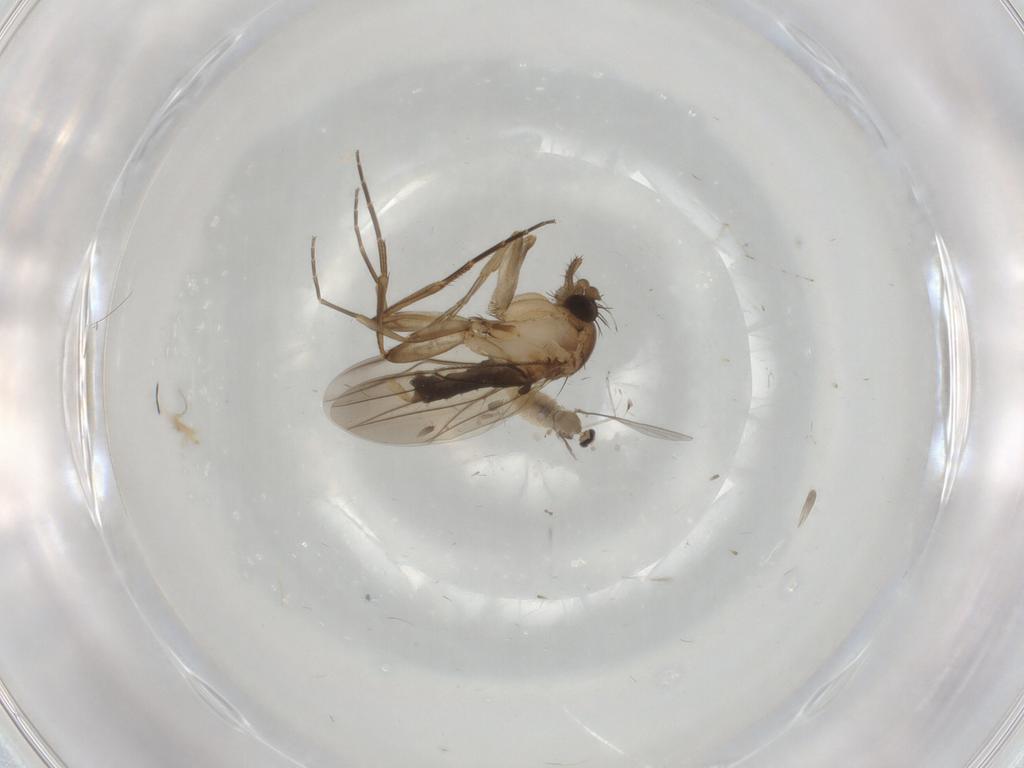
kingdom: Animalia
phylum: Arthropoda
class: Insecta
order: Diptera
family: Phoridae
